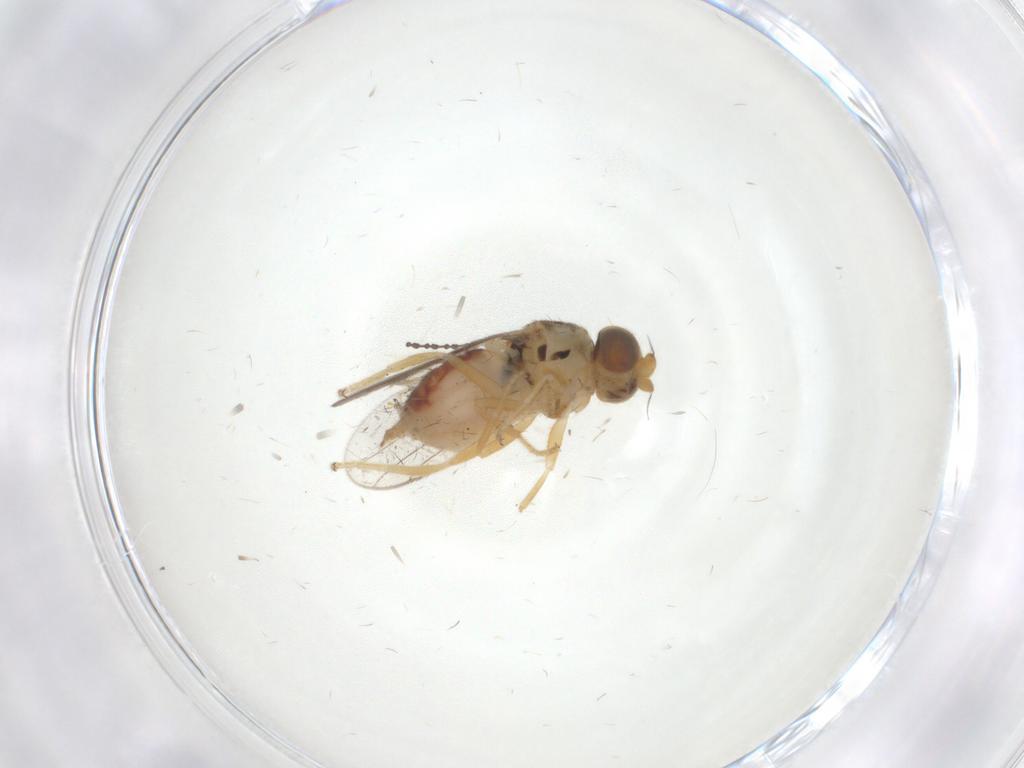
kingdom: Animalia
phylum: Arthropoda
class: Insecta
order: Diptera
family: Chloropidae
